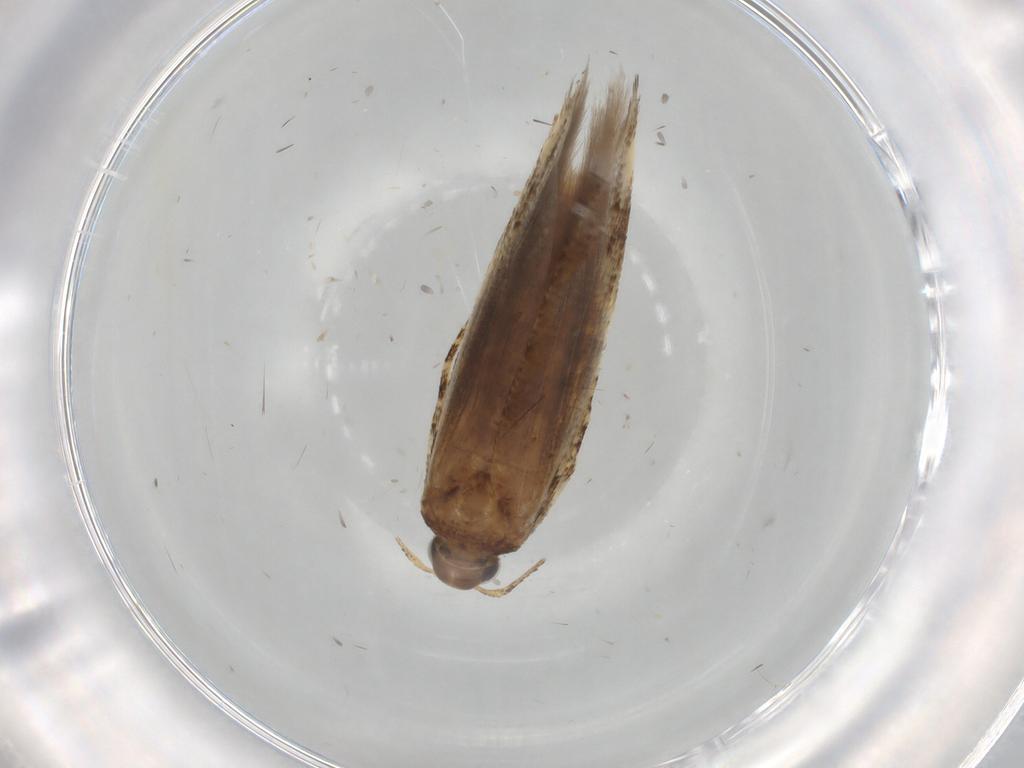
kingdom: Animalia
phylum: Arthropoda
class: Insecta
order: Lepidoptera
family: Gelechiidae
